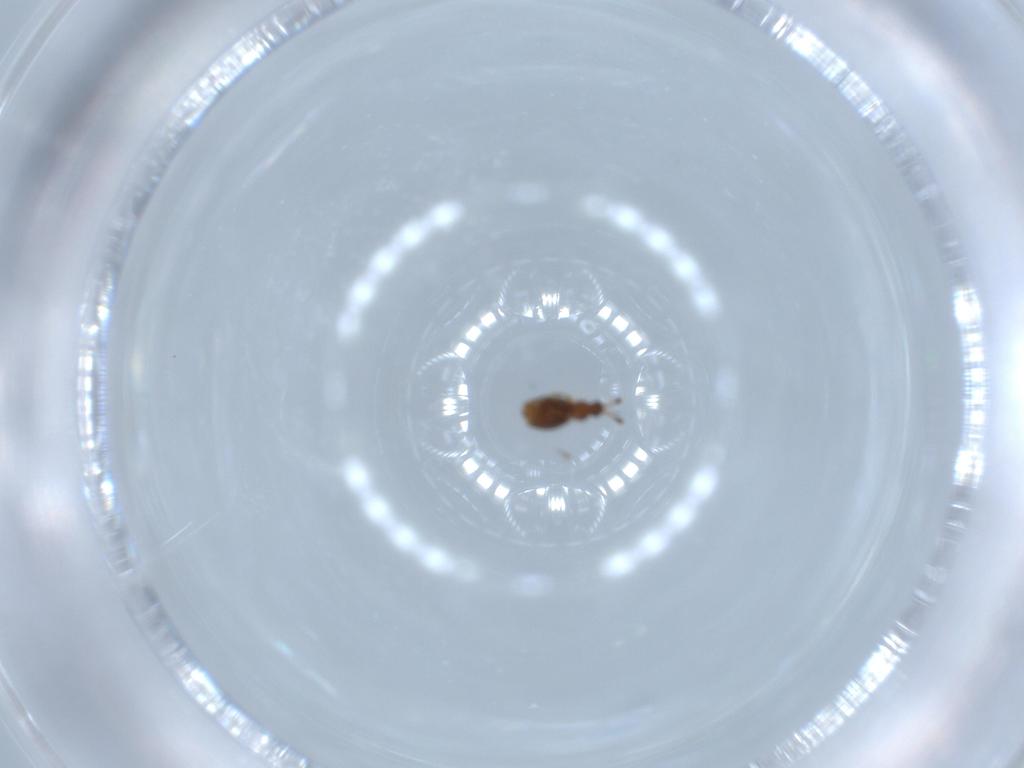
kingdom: Animalia
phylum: Arthropoda
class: Insecta
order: Coleoptera
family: Staphylinidae
